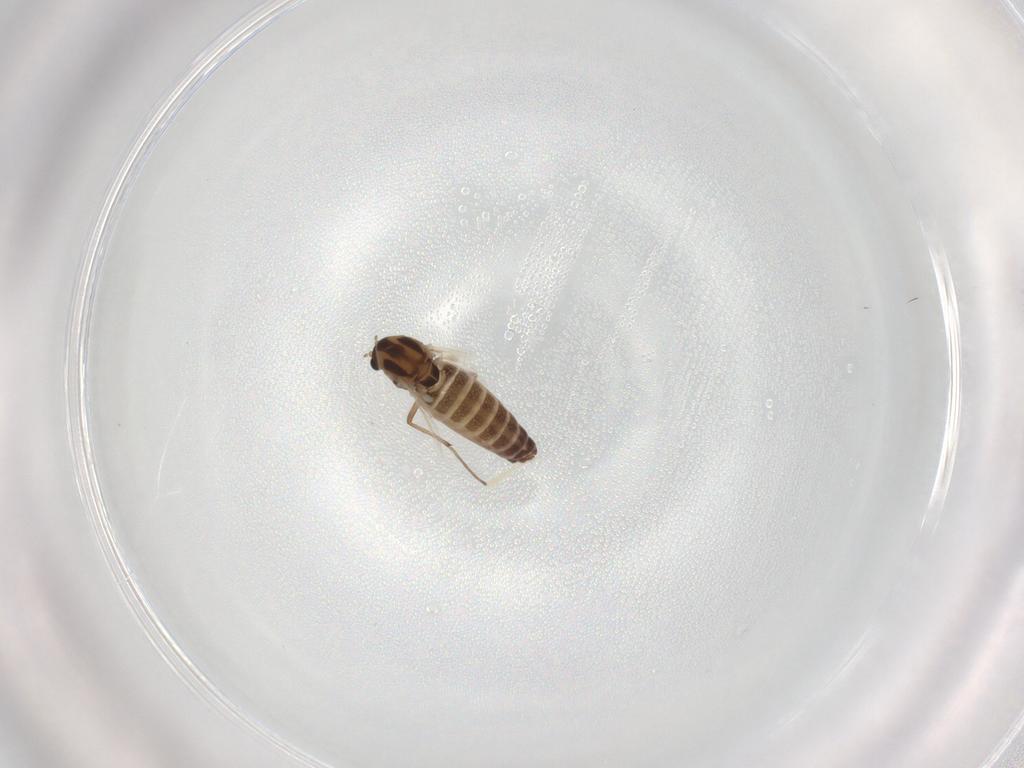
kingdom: Animalia
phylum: Arthropoda
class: Insecta
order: Diptera
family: Chironomidae
